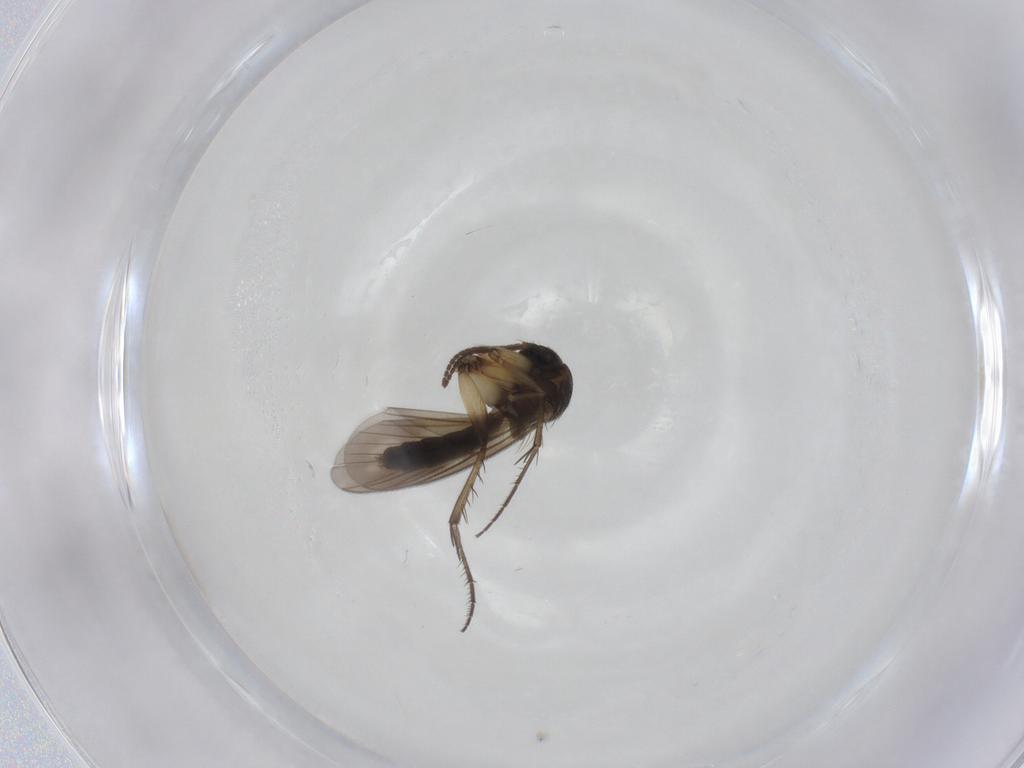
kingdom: Animalia
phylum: Arthropoda
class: Insecta
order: Diptera
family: Mycetophilidae
